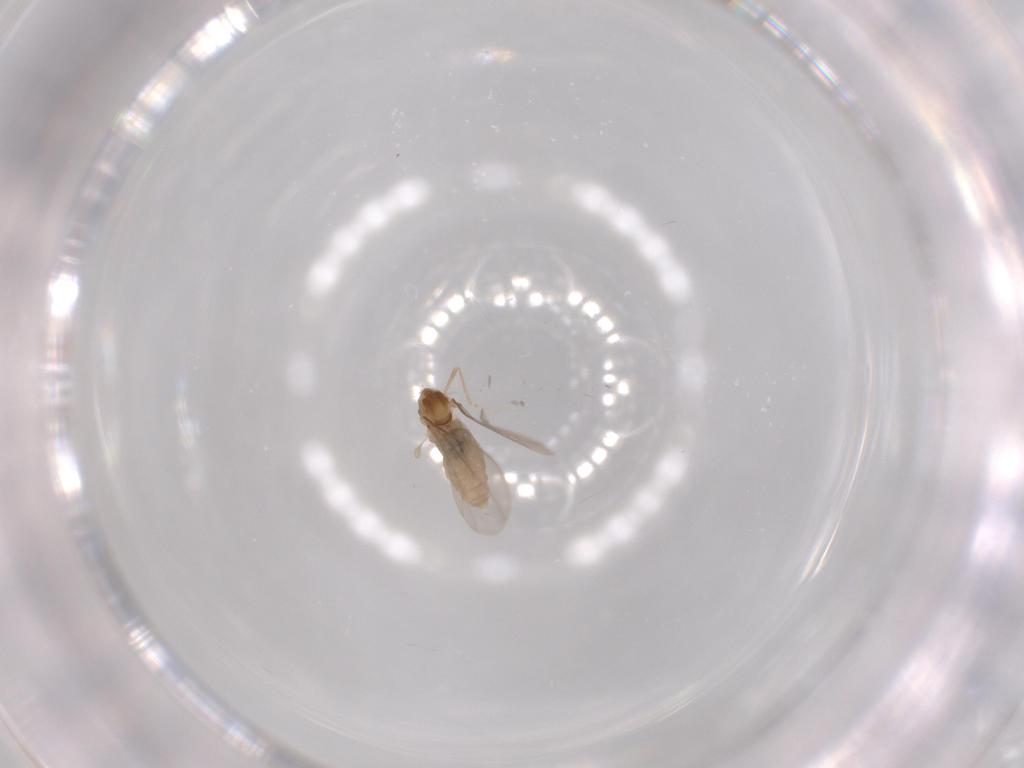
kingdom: Animalia
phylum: Arthropoda
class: Insecta
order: Diptera
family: Cecidomyiidae
